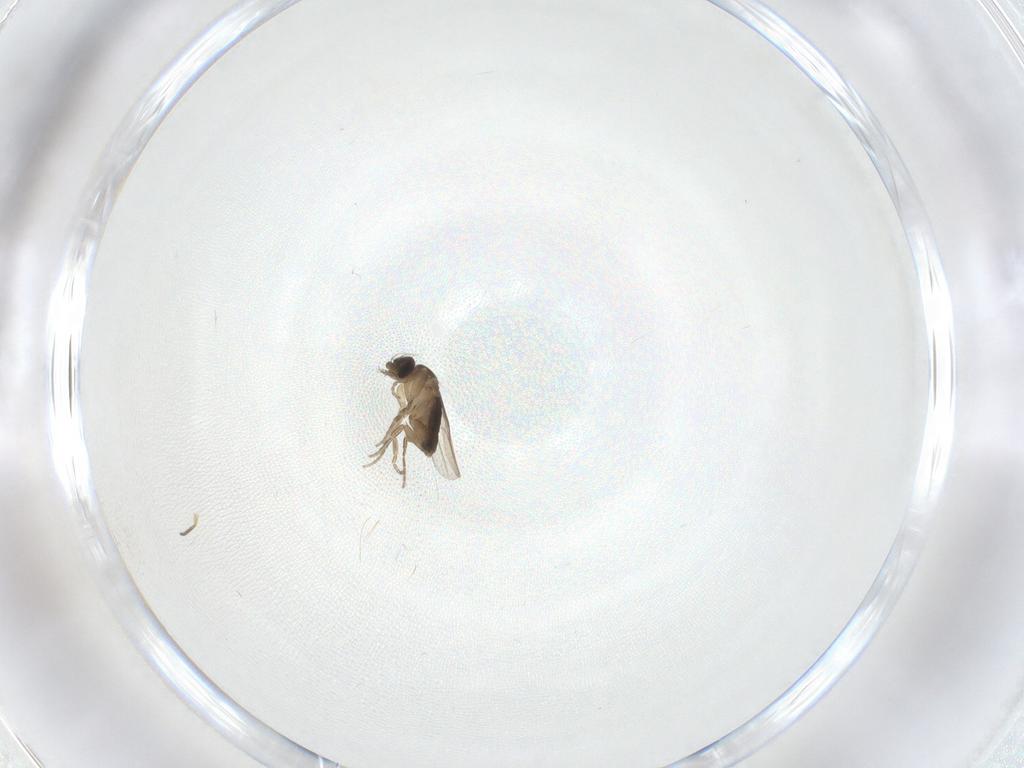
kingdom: Animalia
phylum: Arthropoda
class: Insecta
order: Diptera
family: Phoridae
